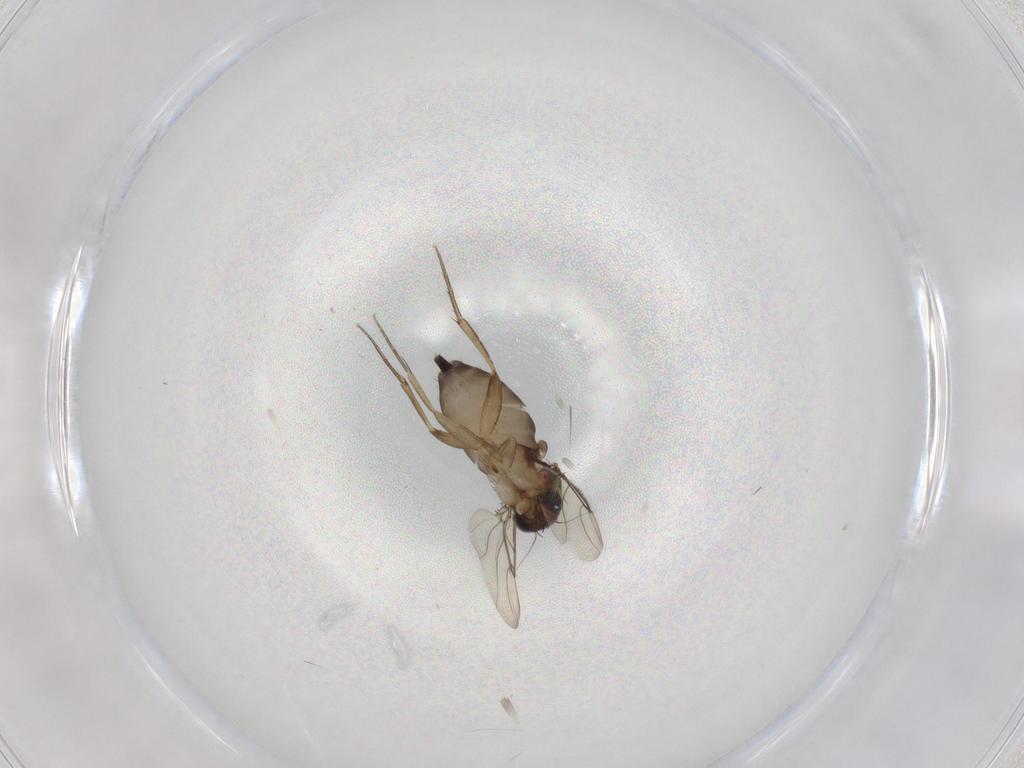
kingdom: Animalia
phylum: Arthropoda
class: Insecta
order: Diptera
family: Phoridae
